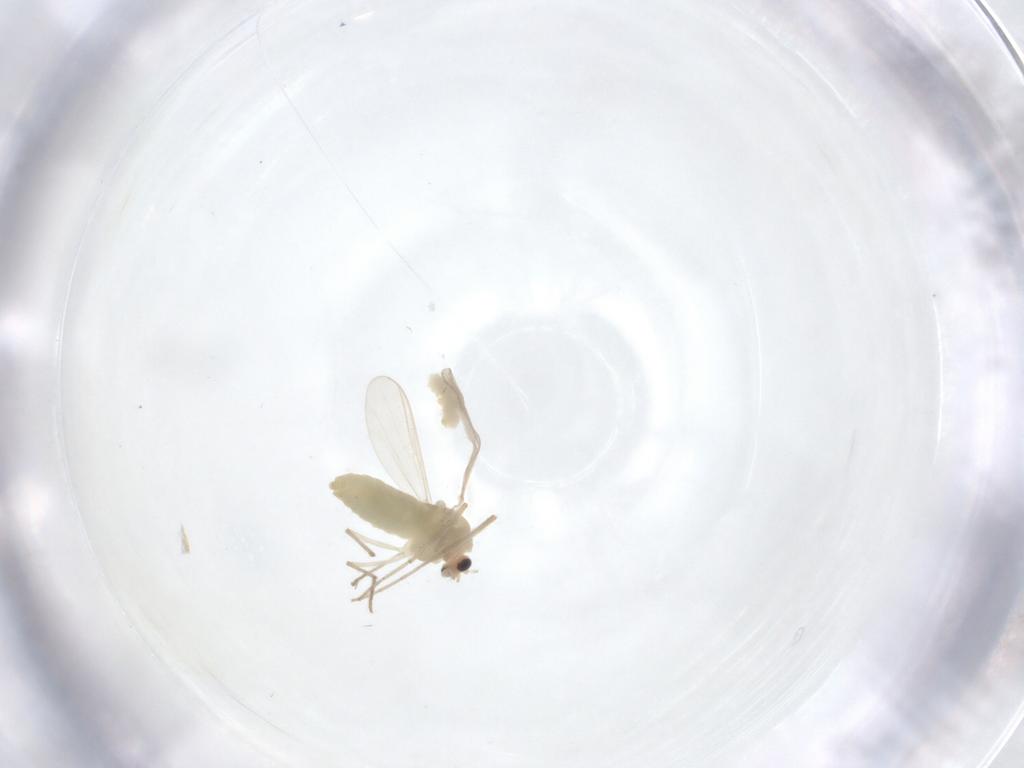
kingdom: Animalia
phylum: Arthropoda
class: Insecta
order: Diptera
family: Chironomidae
